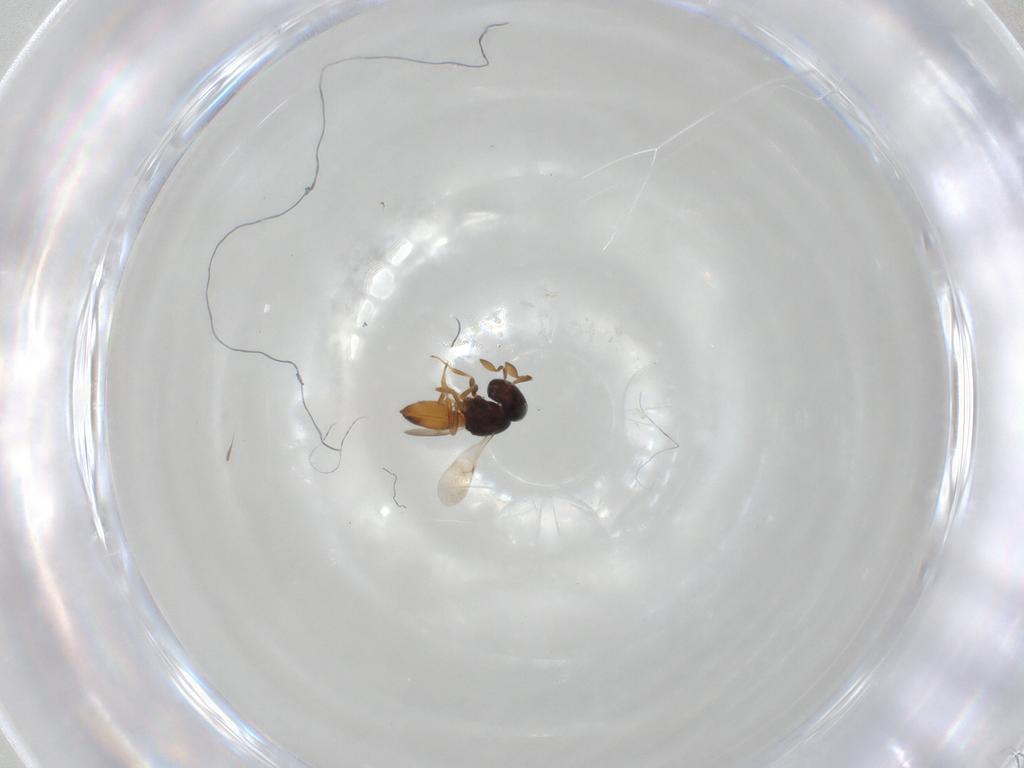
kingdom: Animalia
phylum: Arthropoda
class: Insecta
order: Hymenoptera
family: Scelionidae
